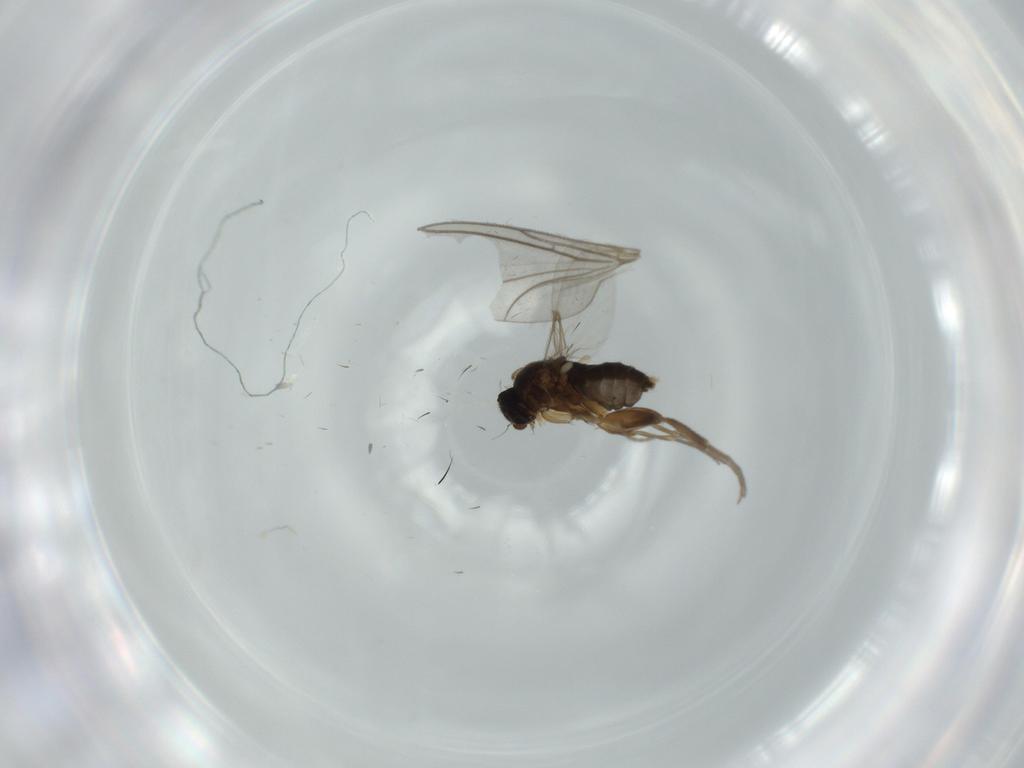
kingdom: Animalia
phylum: Arthropoda
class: Insecta
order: Diptera
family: Phoridae
